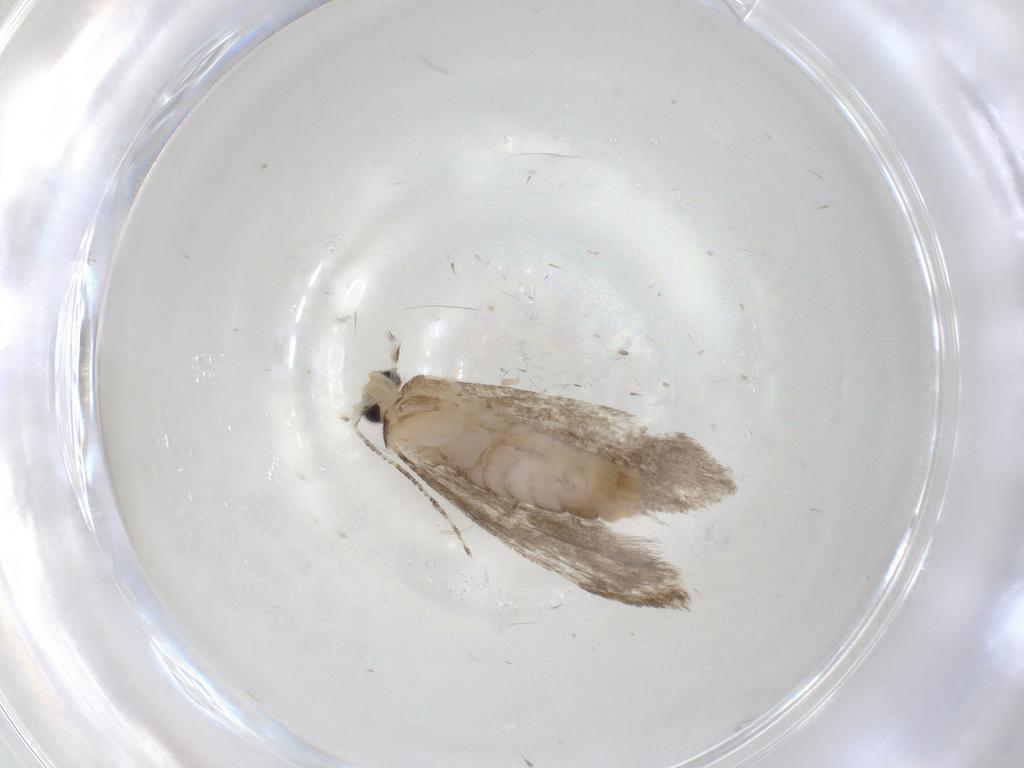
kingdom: Animalia
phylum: Arthropoda
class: Insecta
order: Lepidoptera
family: Tineidae
